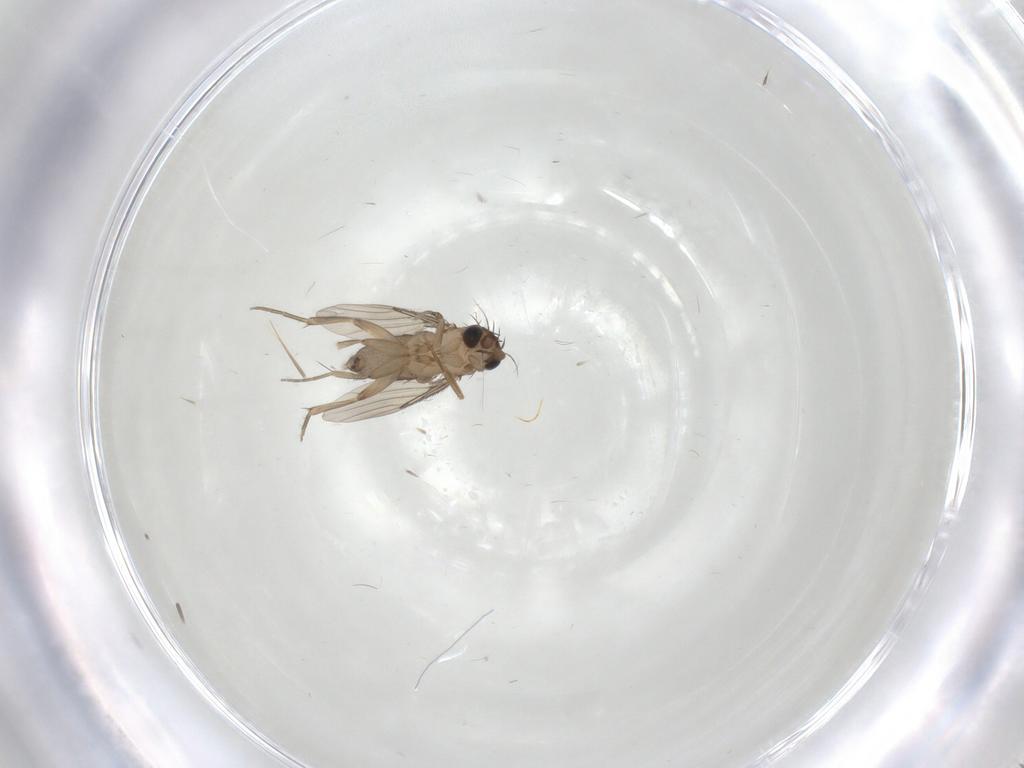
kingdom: Animalia
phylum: Arthropoda
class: Insecta
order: Diptera
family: Phoridae
